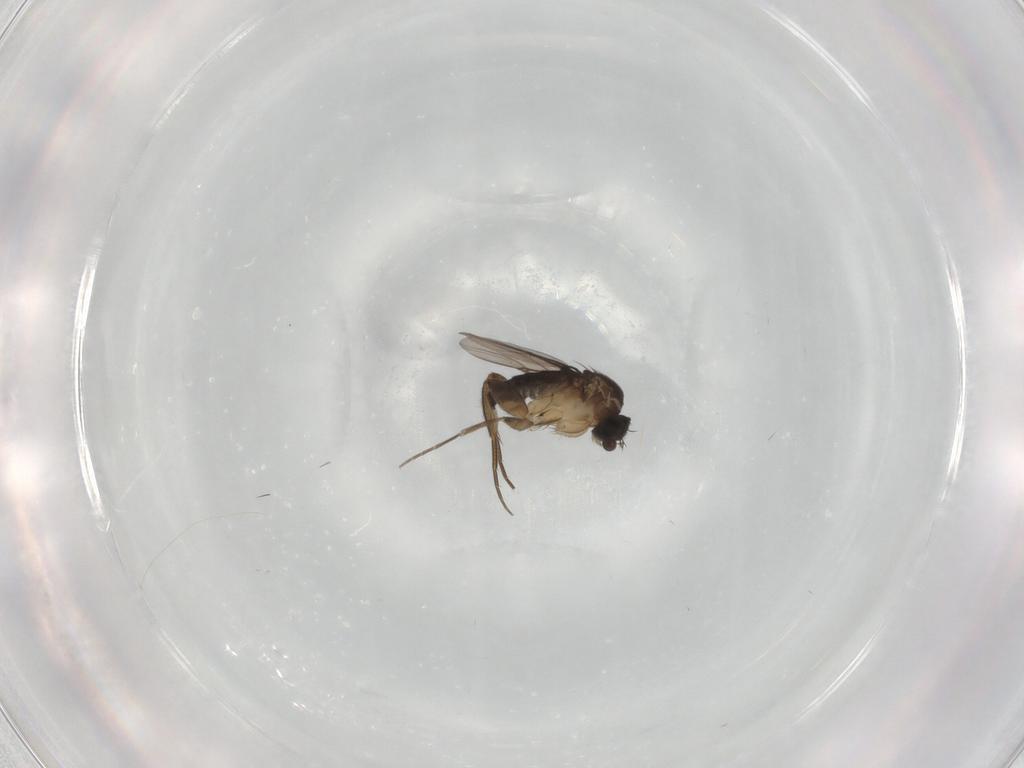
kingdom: Animalia
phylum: Arthropoda
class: Insecta
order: Diptera
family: Phoridae
